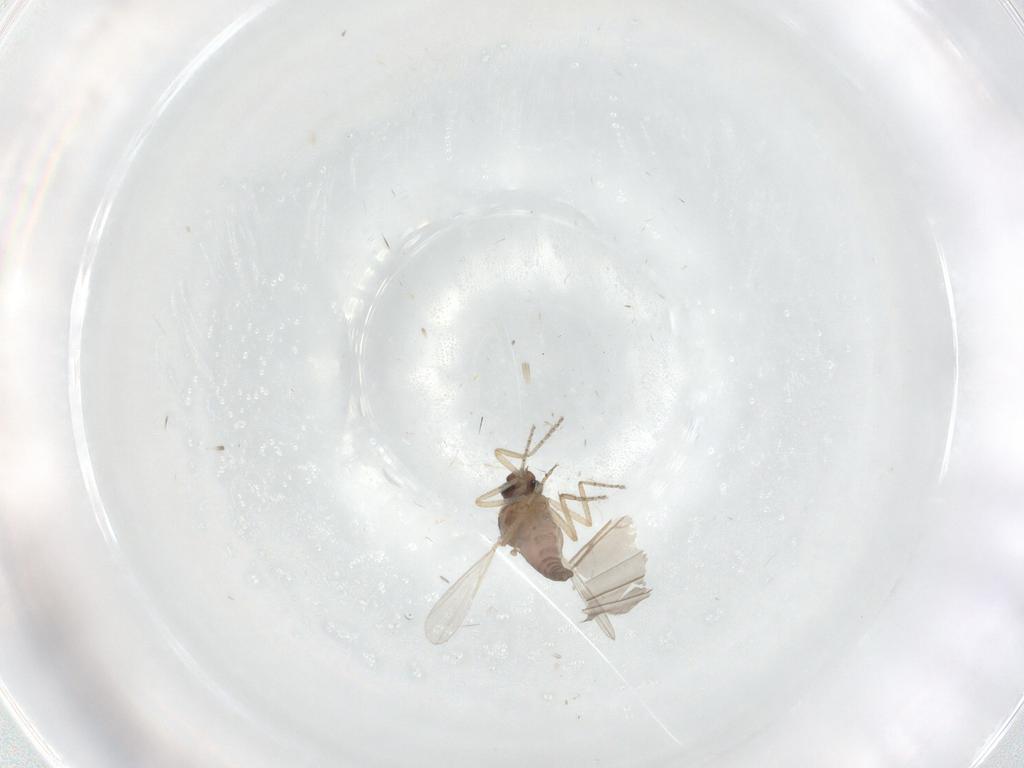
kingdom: Animalia
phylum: Arthropoda
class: Insecta
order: Diptera
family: Ceratopogonidae
